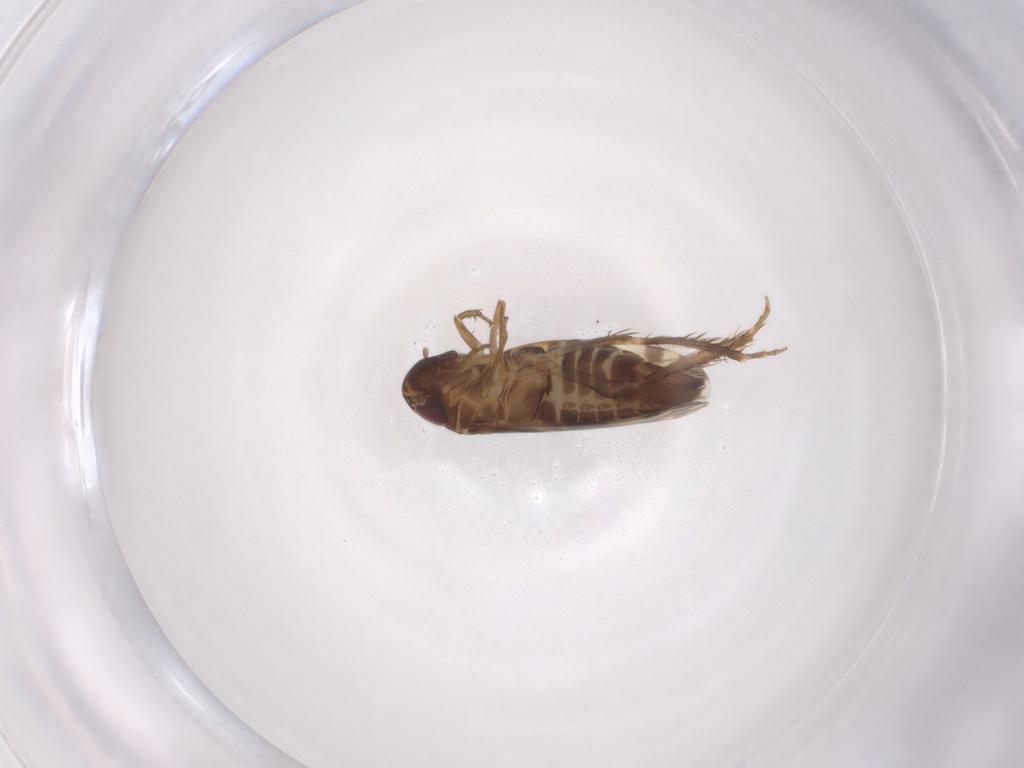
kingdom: Animalia
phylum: Arthropoda
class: Insecta
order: Hemiptera
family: Cicadellidae
